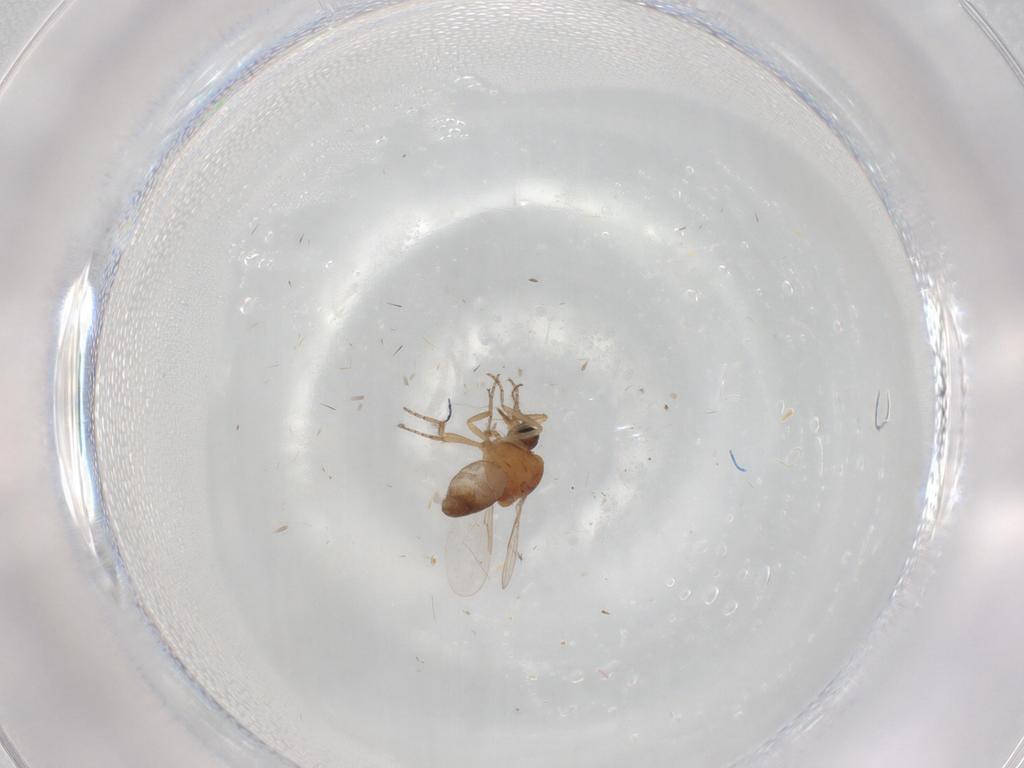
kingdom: Animalia
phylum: Arthropoda
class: Insecta
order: Diptera
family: Ceratopogonidae
